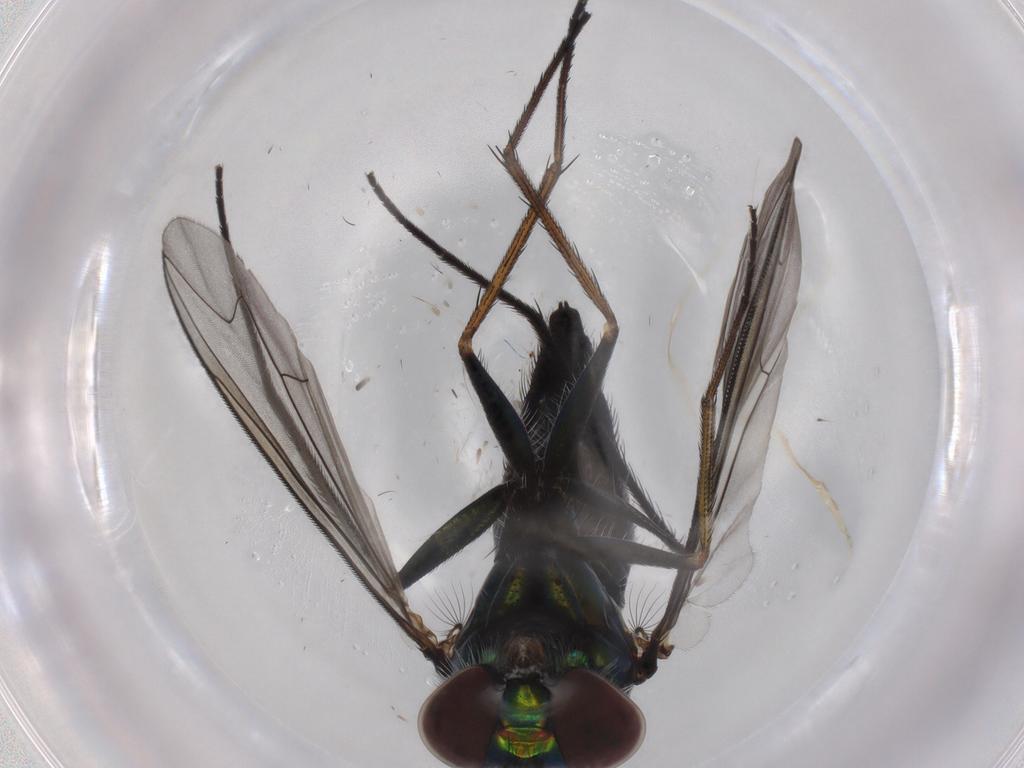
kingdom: Animalia
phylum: Arthropoda
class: Insecta
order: Diptera
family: Dolichopodidae
